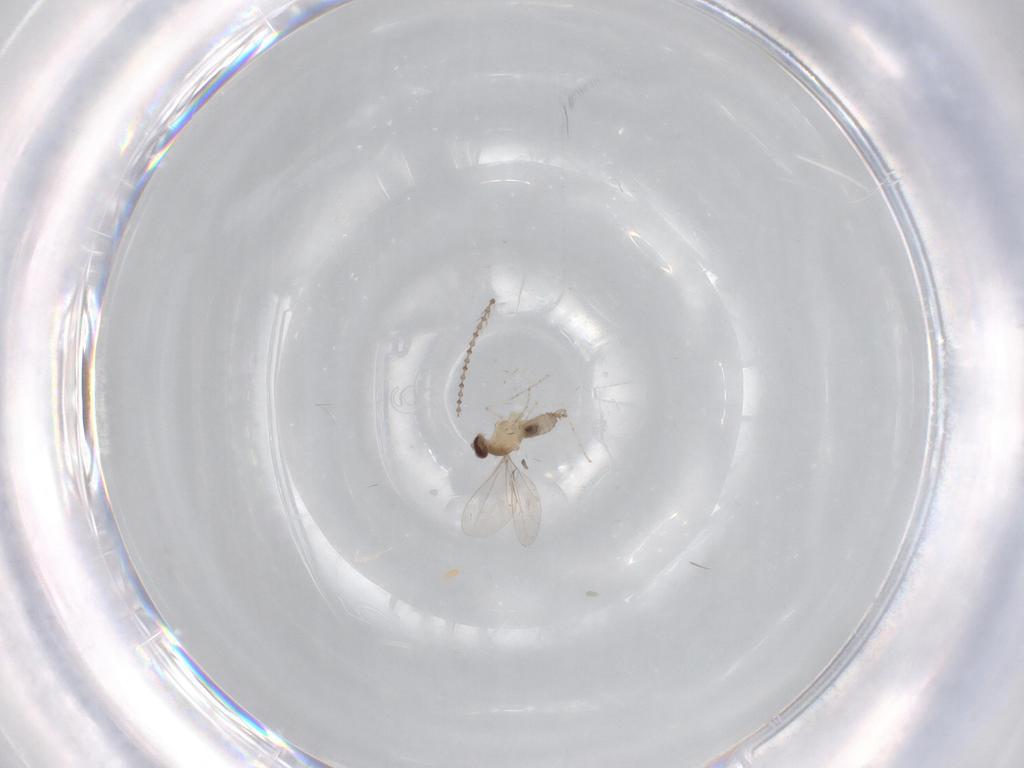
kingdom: Animalia
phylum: Arthropoda
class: Insecta
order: Diptera
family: Cecidomyiidae
